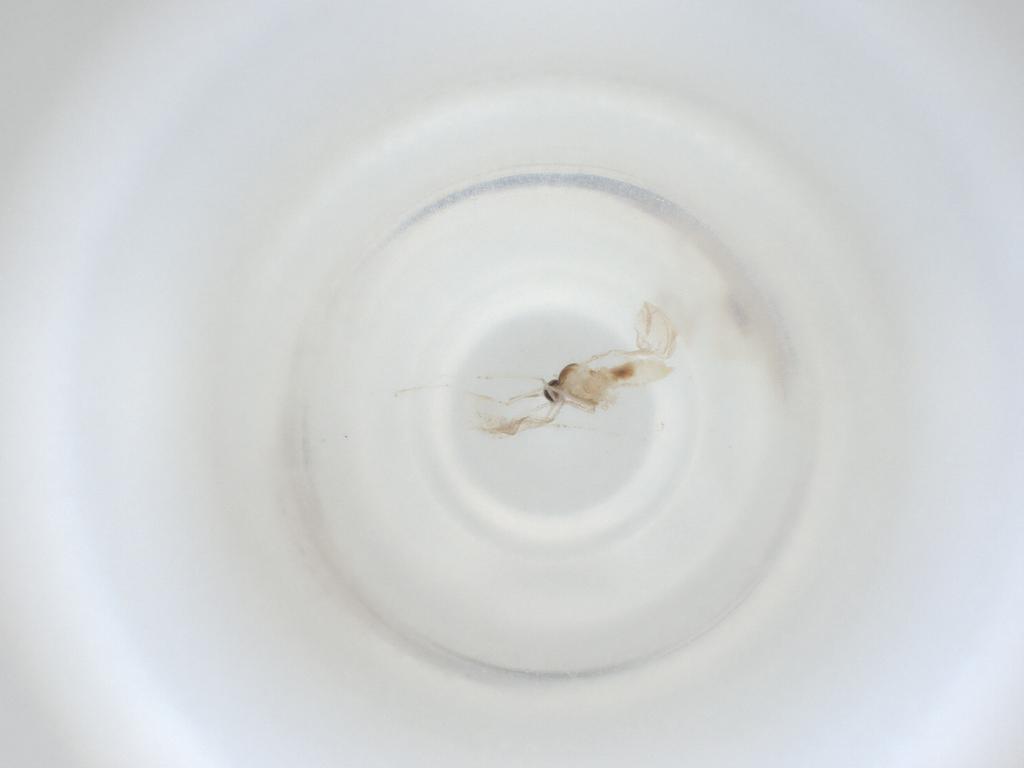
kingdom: Animalia
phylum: Arthropoda
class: Insecta
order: Diptera
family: Cecidomyiidae
